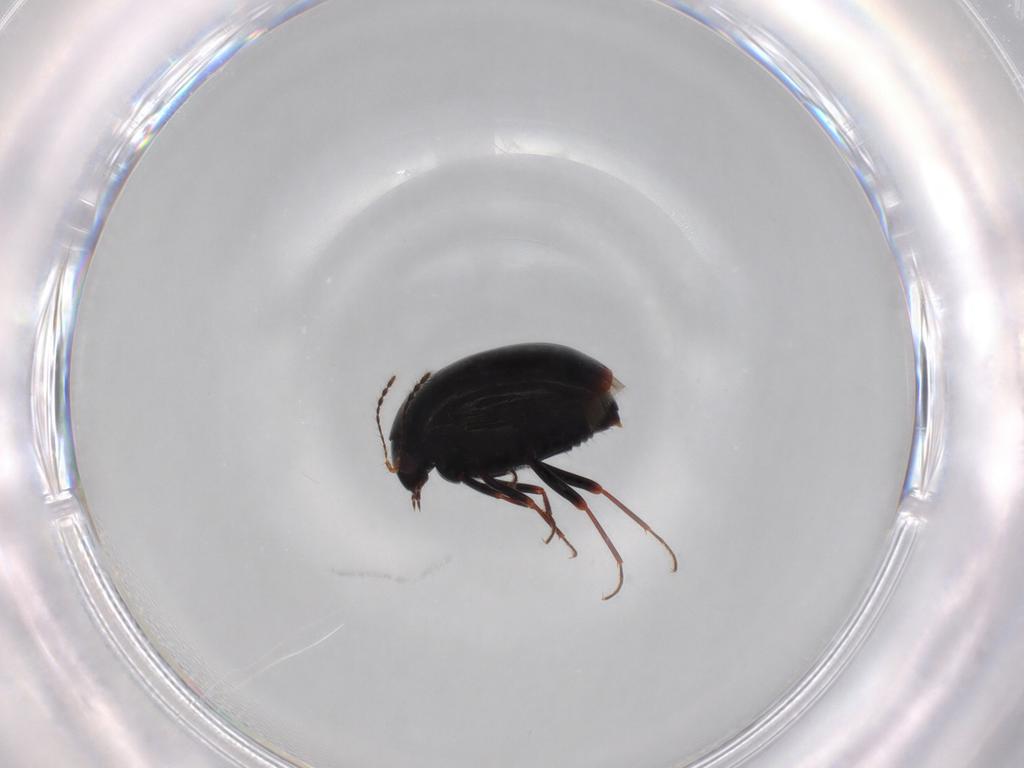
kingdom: Animalia
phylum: Arthropoda
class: Insecta
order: Coleoptera
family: Staphylinidae
